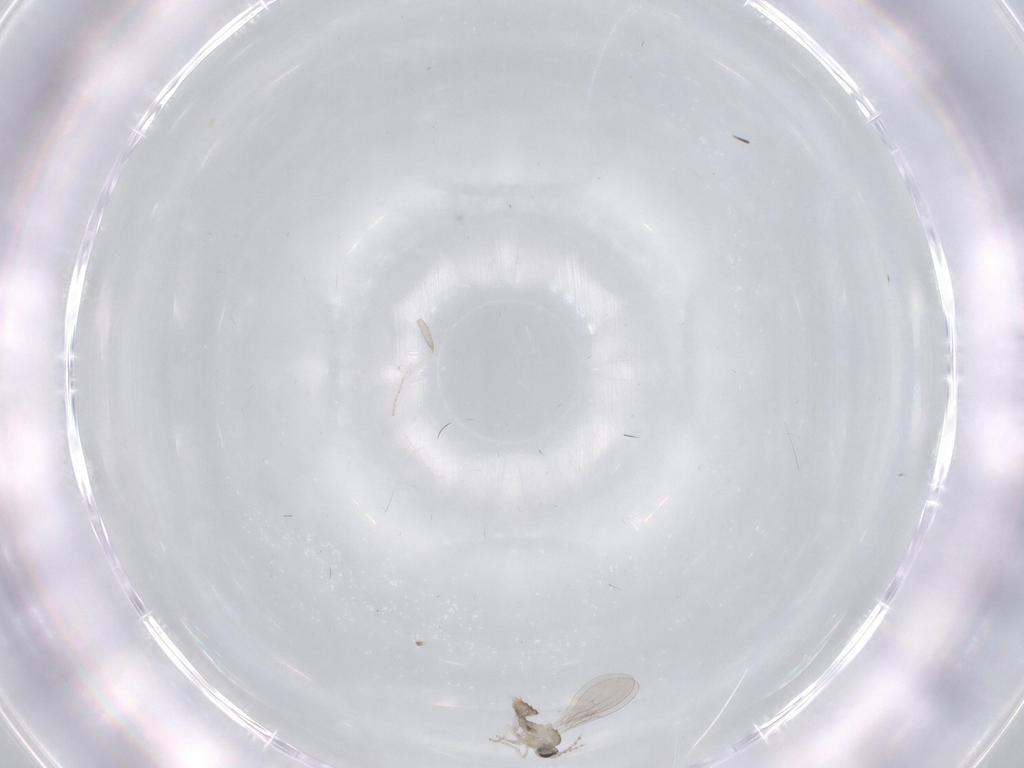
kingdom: Animalia
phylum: Arthropoda
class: Insecta
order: Diptera
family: Cecidomyiidae
